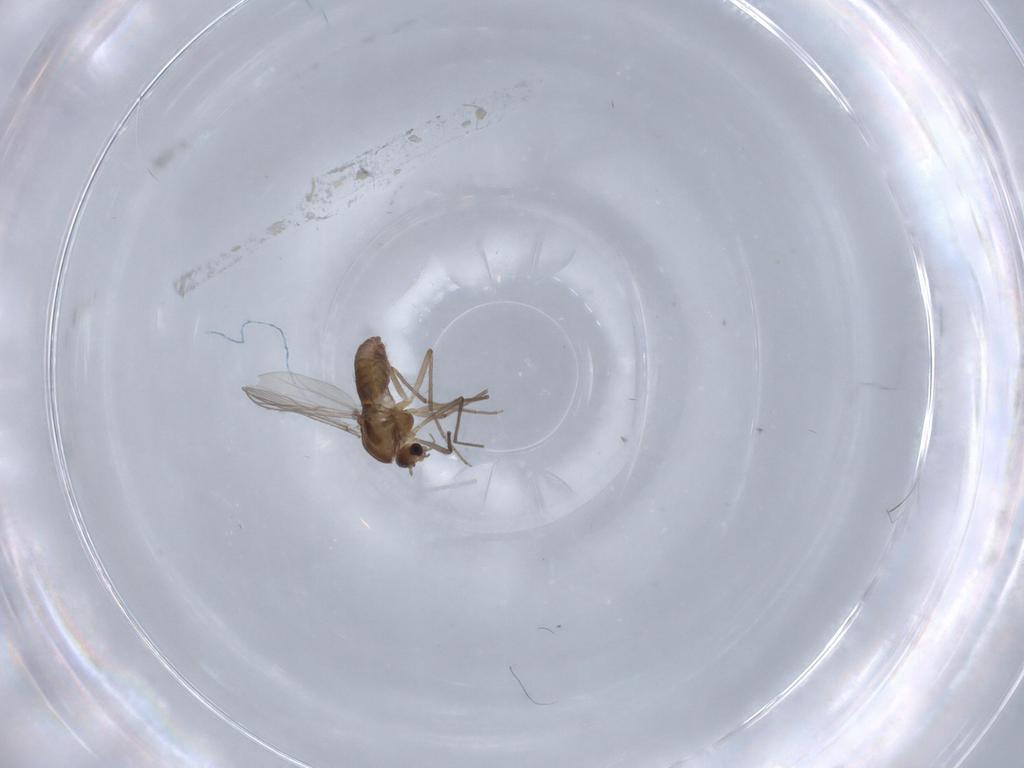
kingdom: Animalia
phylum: Arthropoda
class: Insecta
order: Diptera
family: Chironomidae
